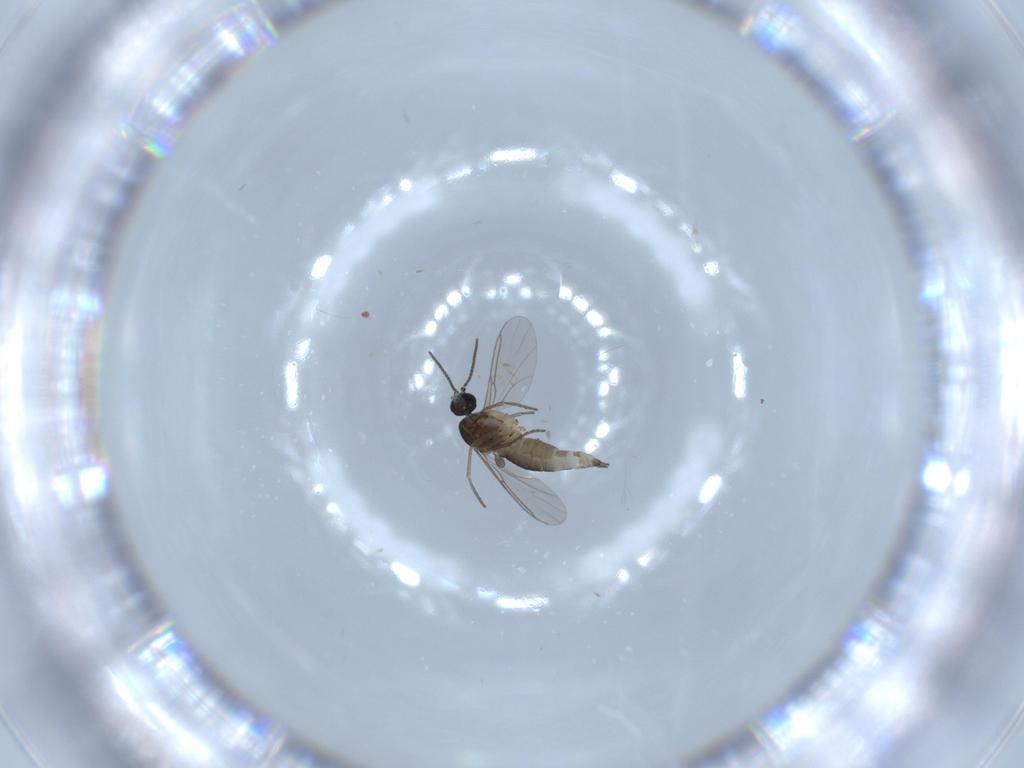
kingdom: Animalia
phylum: Arthropoda
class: Insecta
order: Diptera
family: Sciaridae
